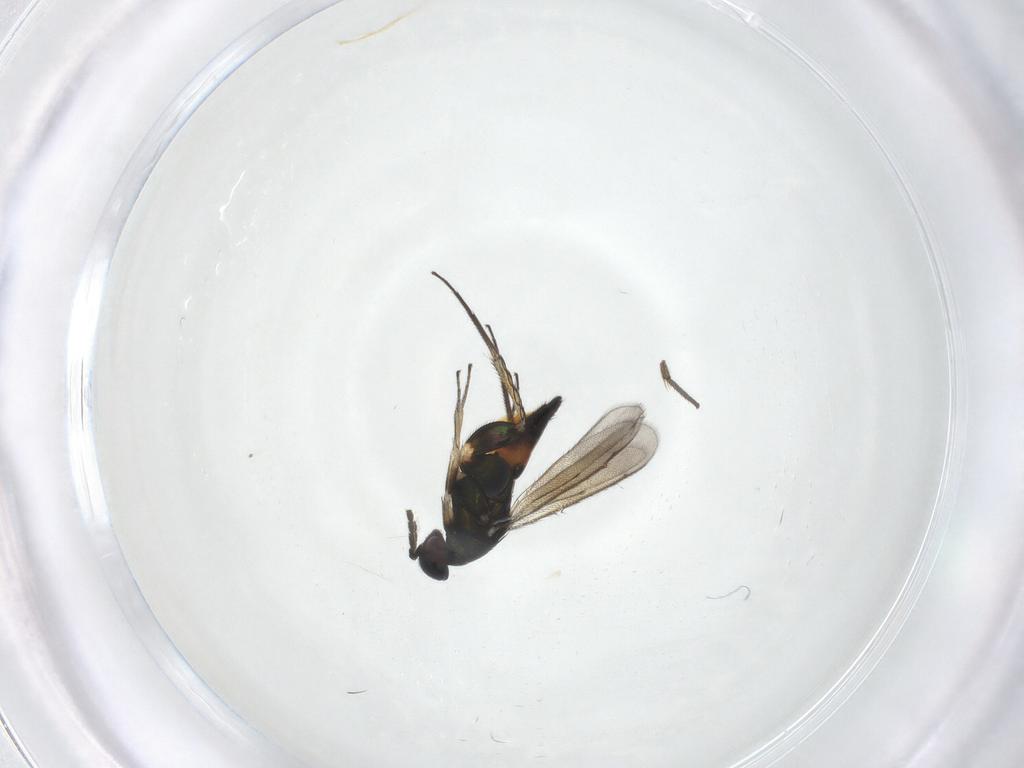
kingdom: Animalia
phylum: Arthropoda
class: Insecta
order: Hymenoptera
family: Eulophidae
